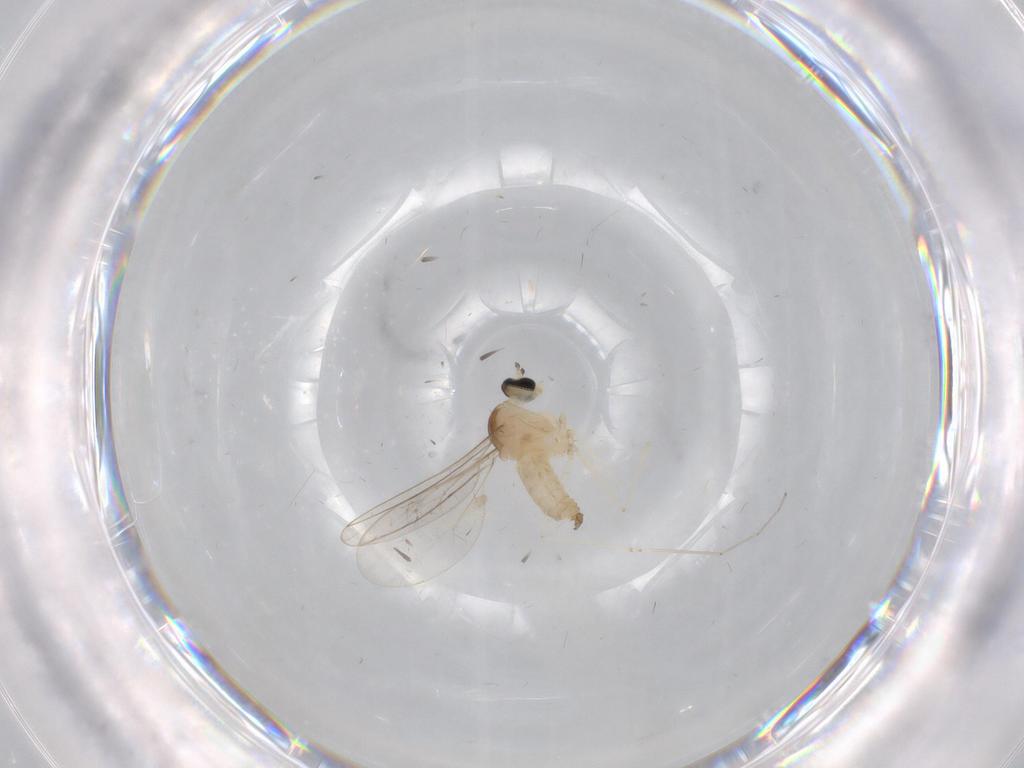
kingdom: Animalia
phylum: Arthropoda
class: Insecta
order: Diptera
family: Cecidomyiidae
